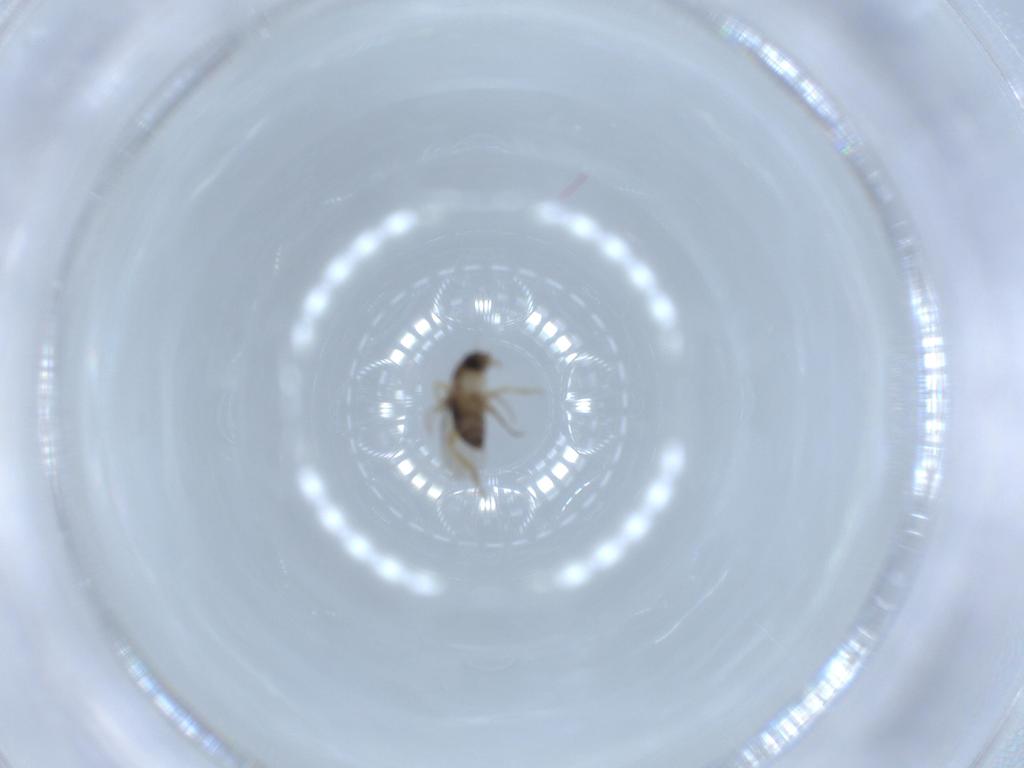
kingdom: Animalia
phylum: Arthropoda
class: Insecta
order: Diptera
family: Phoridae
